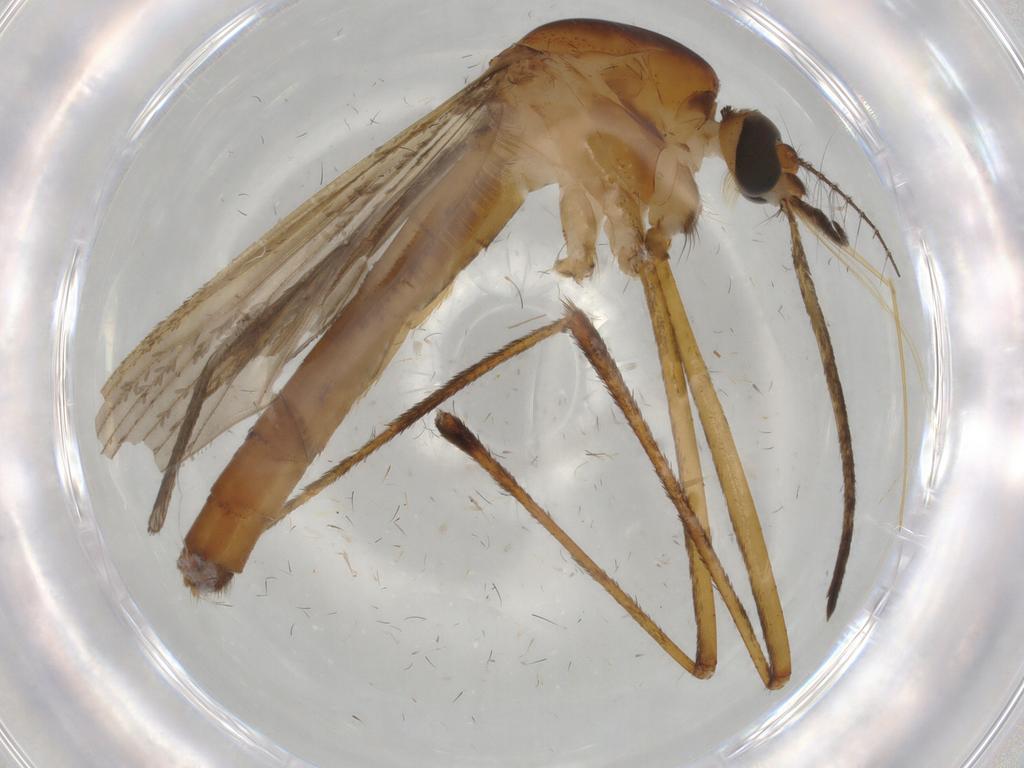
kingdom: Animalia
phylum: Arthropoda
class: Insecta
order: Diptera
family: Chironomidae
